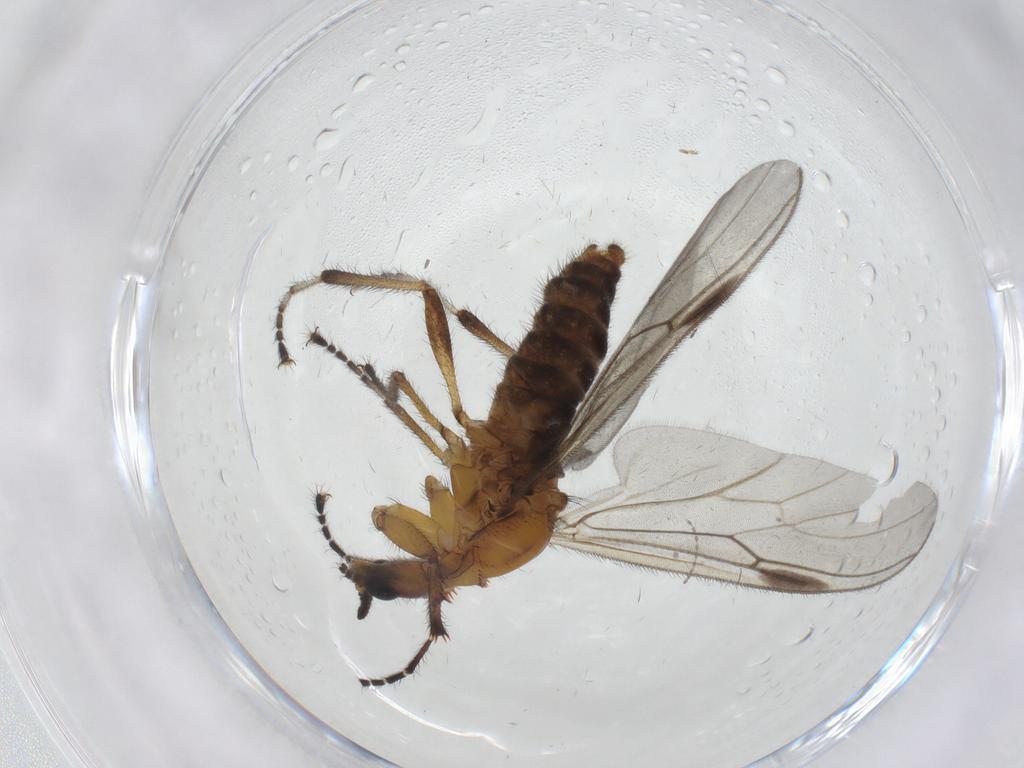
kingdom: Animalia
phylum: Arthropoda
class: Insecta
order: Diptera
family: Bibionidae
